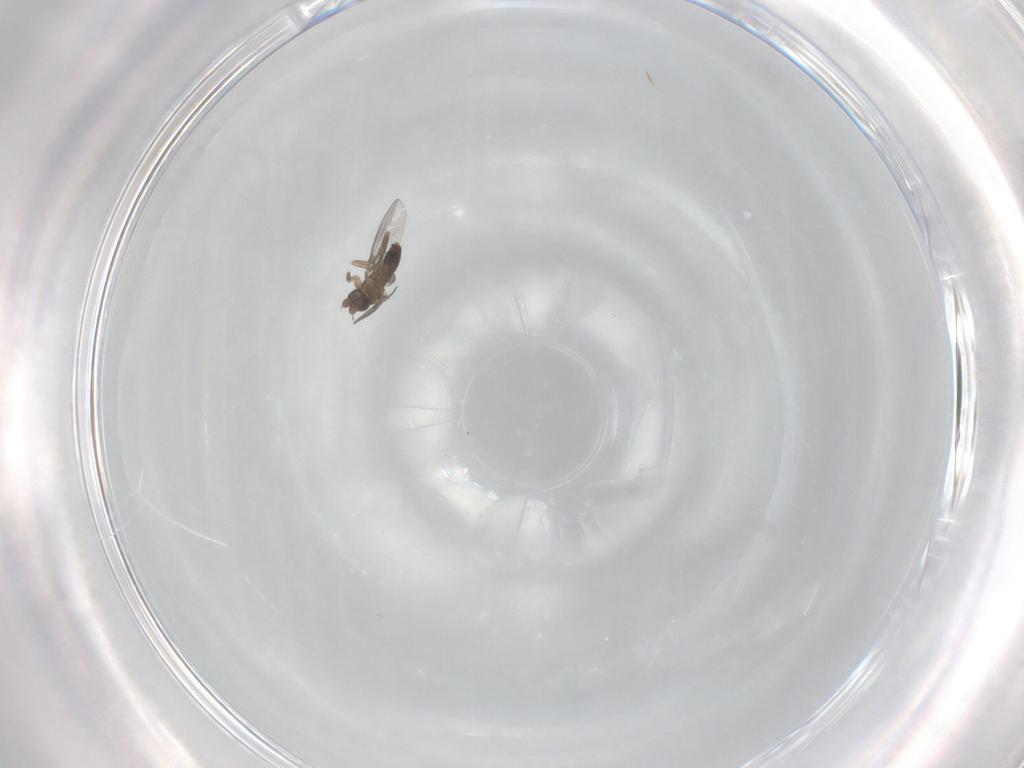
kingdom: Animalia
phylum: Arthropoda
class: Insecta
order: Diptera
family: Phoridae
